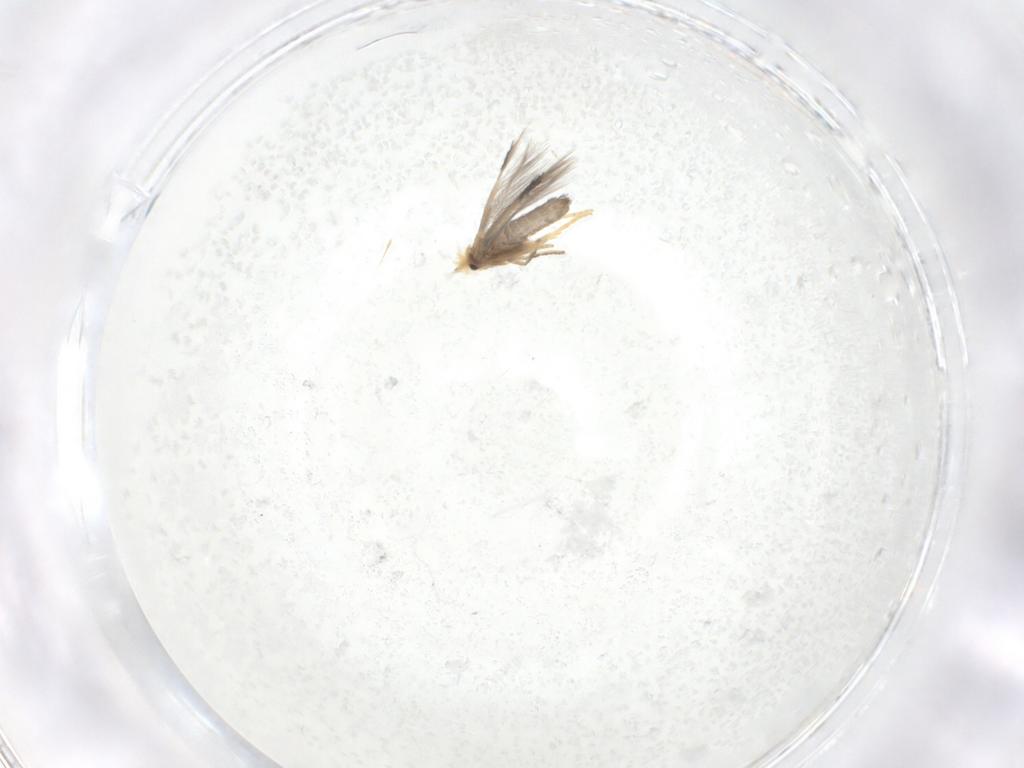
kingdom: Animalia
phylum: Arthropoda
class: Insecta
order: Lepidoptera
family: Nepticulidae
